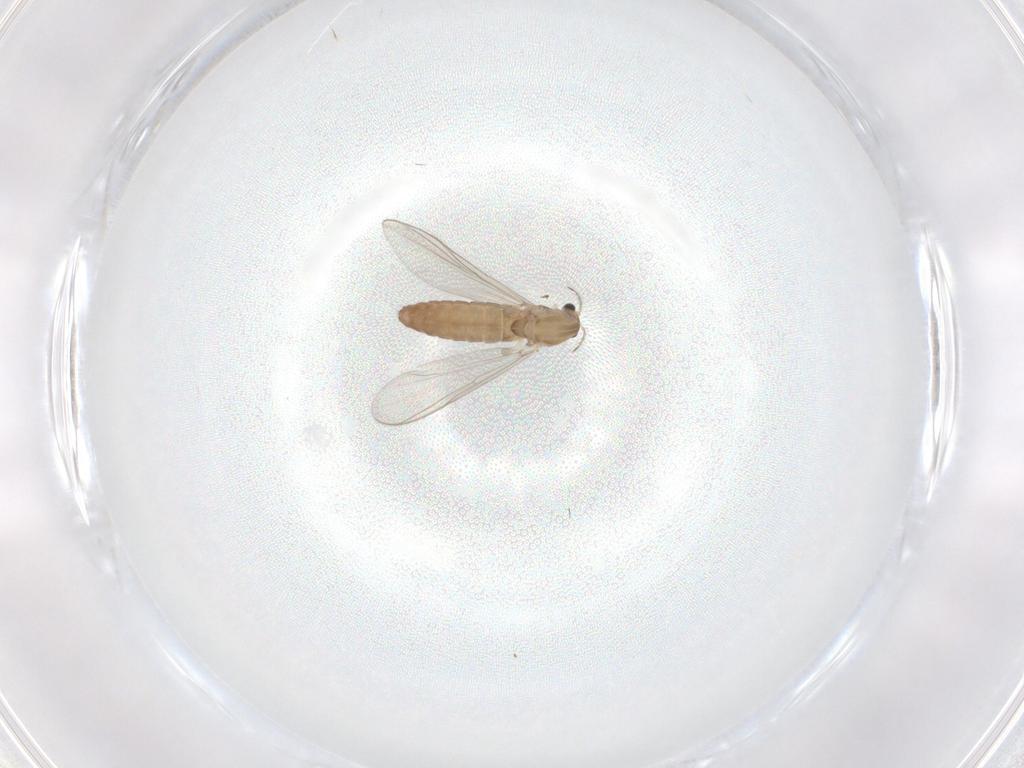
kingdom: Animalia
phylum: Arthropoda
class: Insecta
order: Diptera
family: Chironomidae
